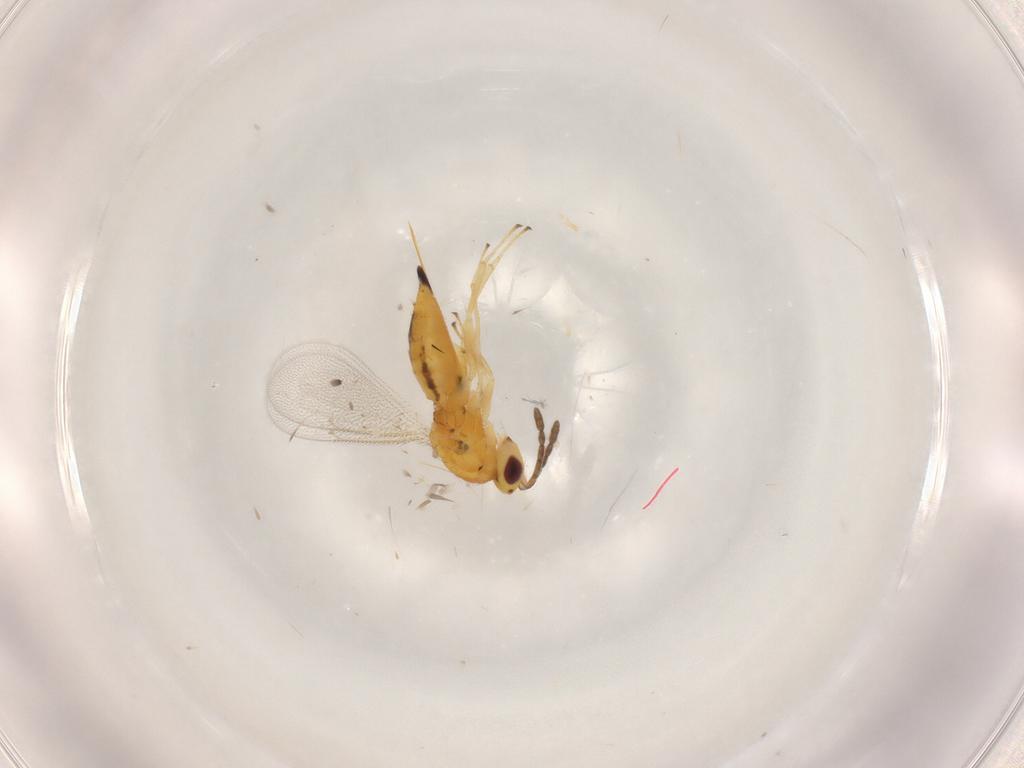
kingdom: Animalia
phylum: Arthropoda
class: Insecta
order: Hymenoptera
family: Eulophidae
